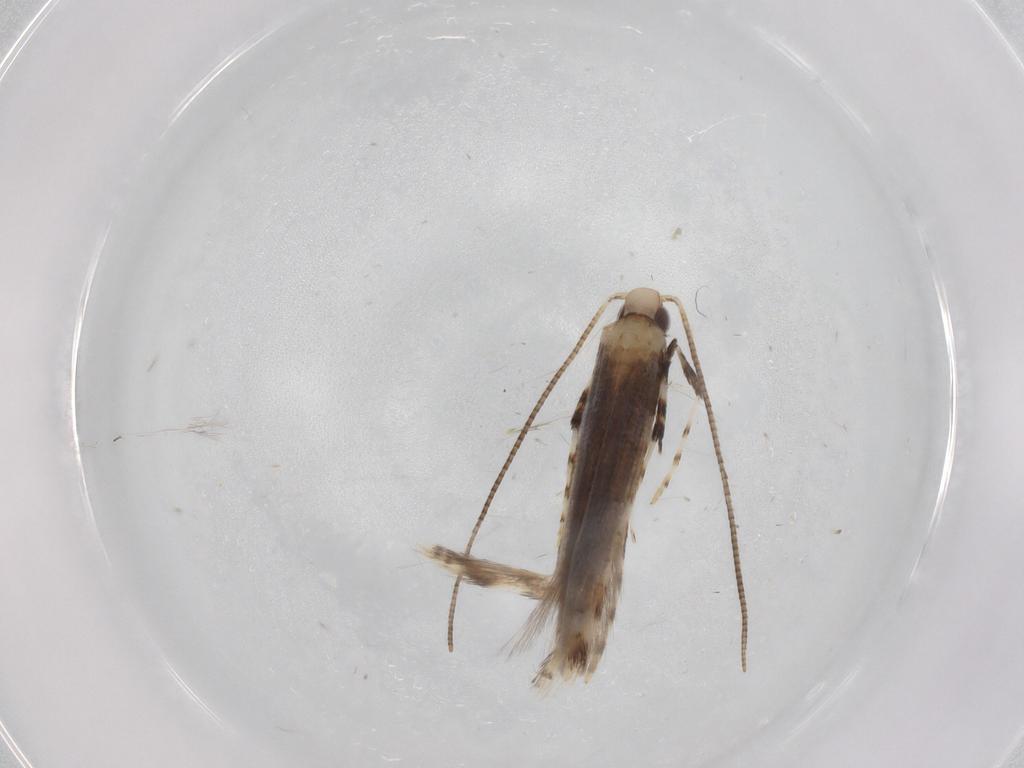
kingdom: Animalia
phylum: Arthropoda
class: Insecta
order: Lepidoptera
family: Gracillariidae
